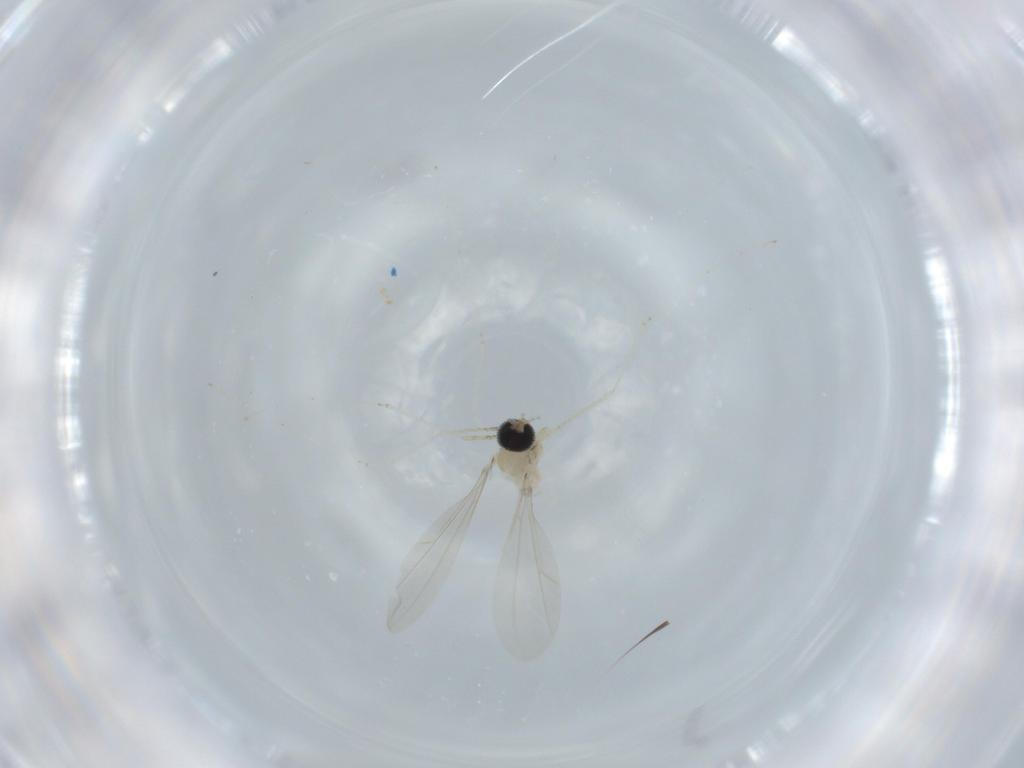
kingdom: Animalia
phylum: Arthropoda
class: Insecta
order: Diptera
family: Cecidomyiidae
